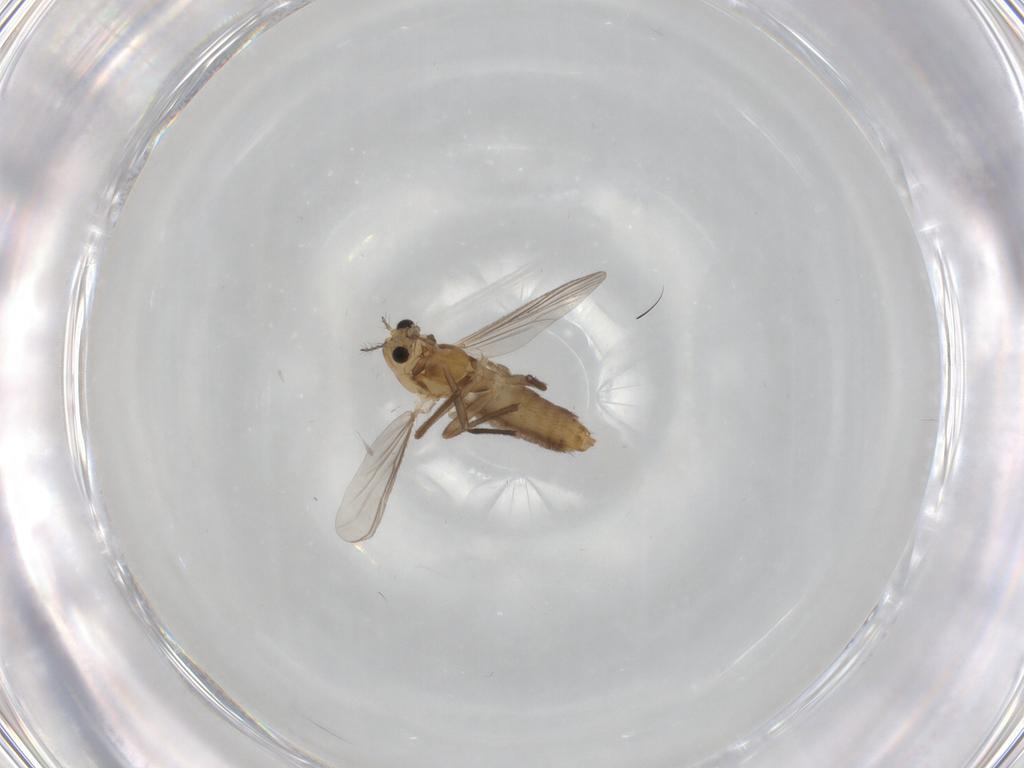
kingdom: Animalia
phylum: Arthropoda
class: Insecta
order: Diptera
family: Chironomidae
